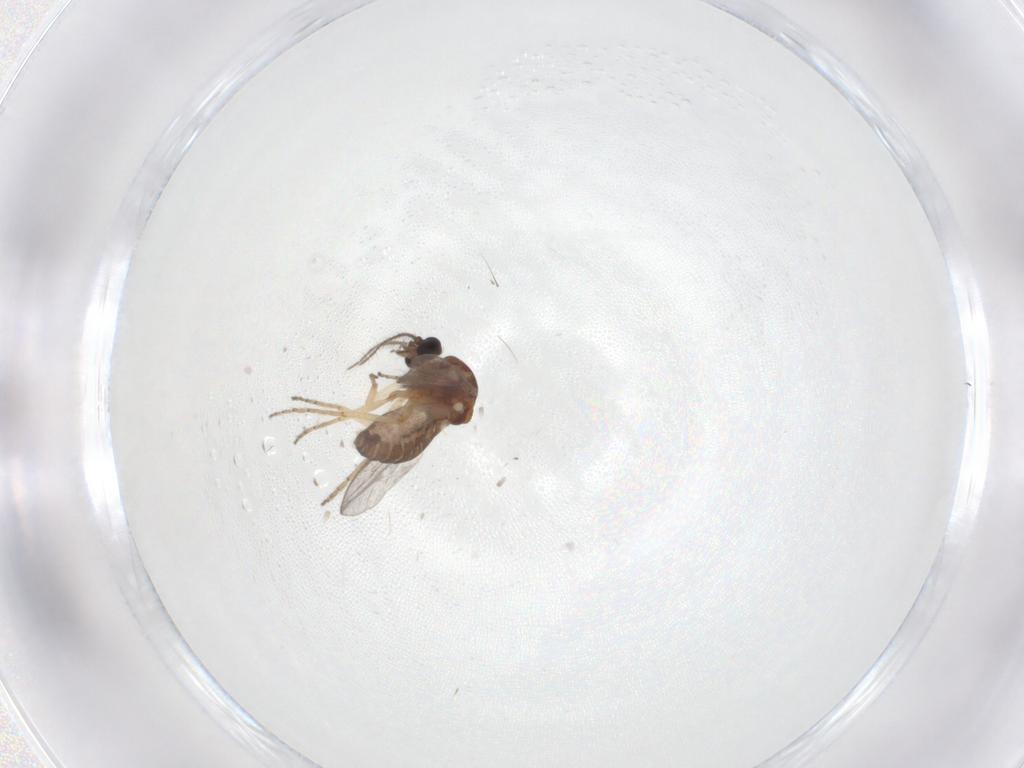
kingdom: Animalia
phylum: Arthropoda
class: Insecta
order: Diptera
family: Ceratopogonidae
